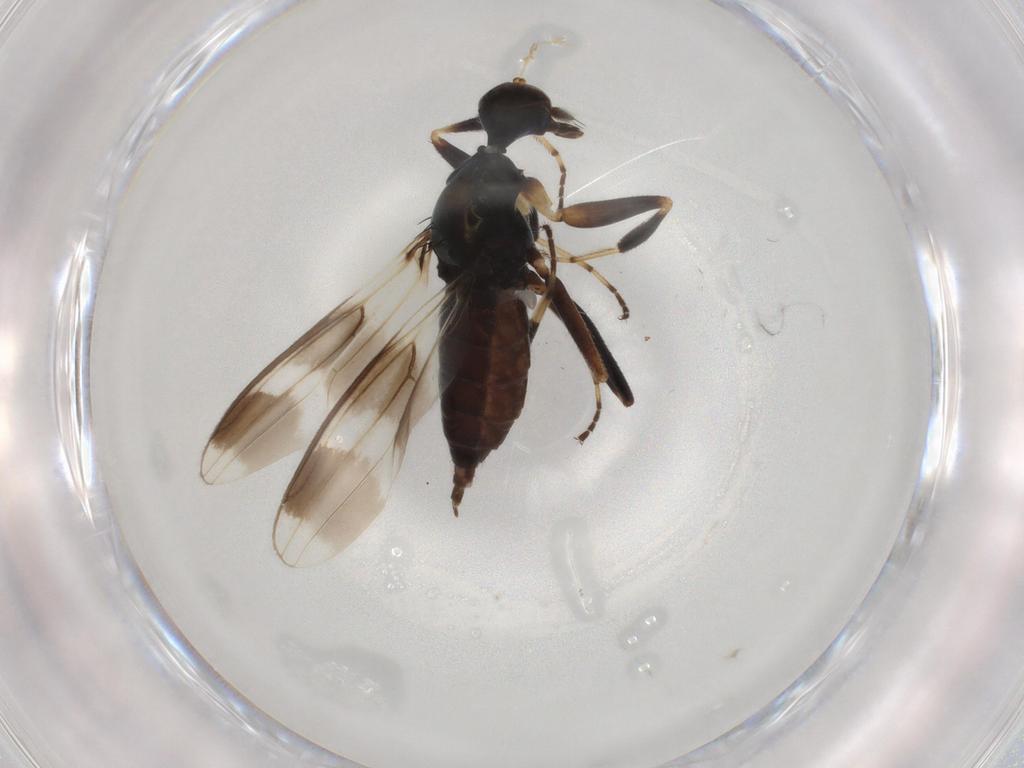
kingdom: Animalia
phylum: Arthropoda
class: Insecta
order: Diptera
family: Hybotidae
